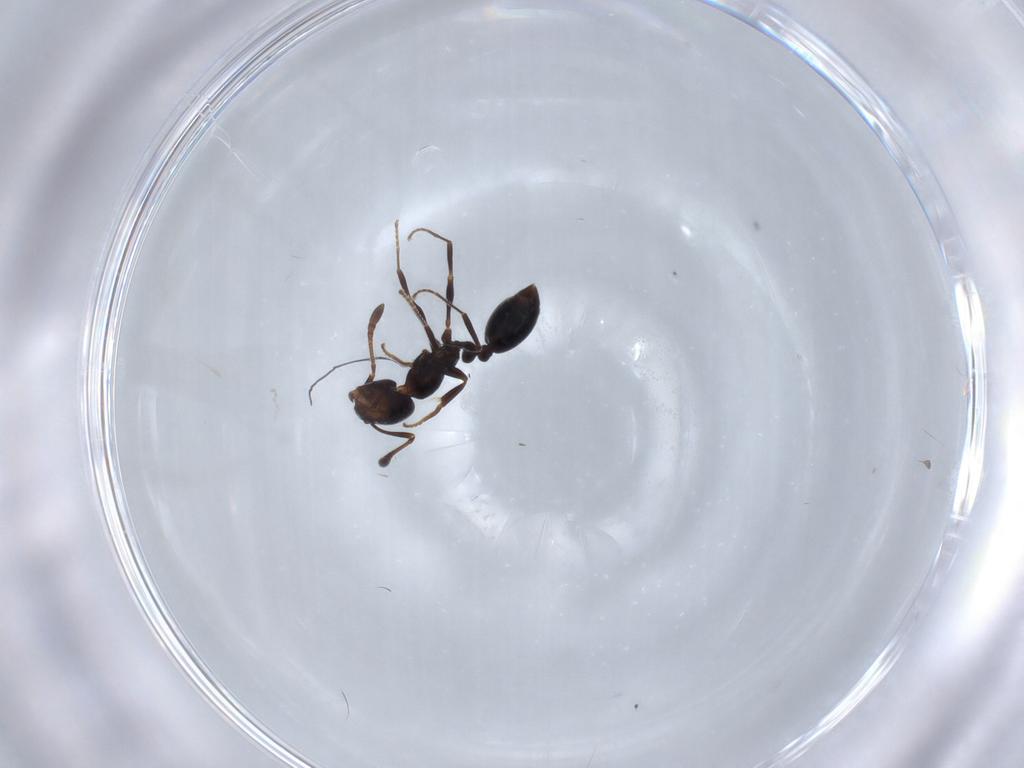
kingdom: Animalia
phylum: Arthropoda
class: Insecta
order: Hymenoptera
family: Formicidae
